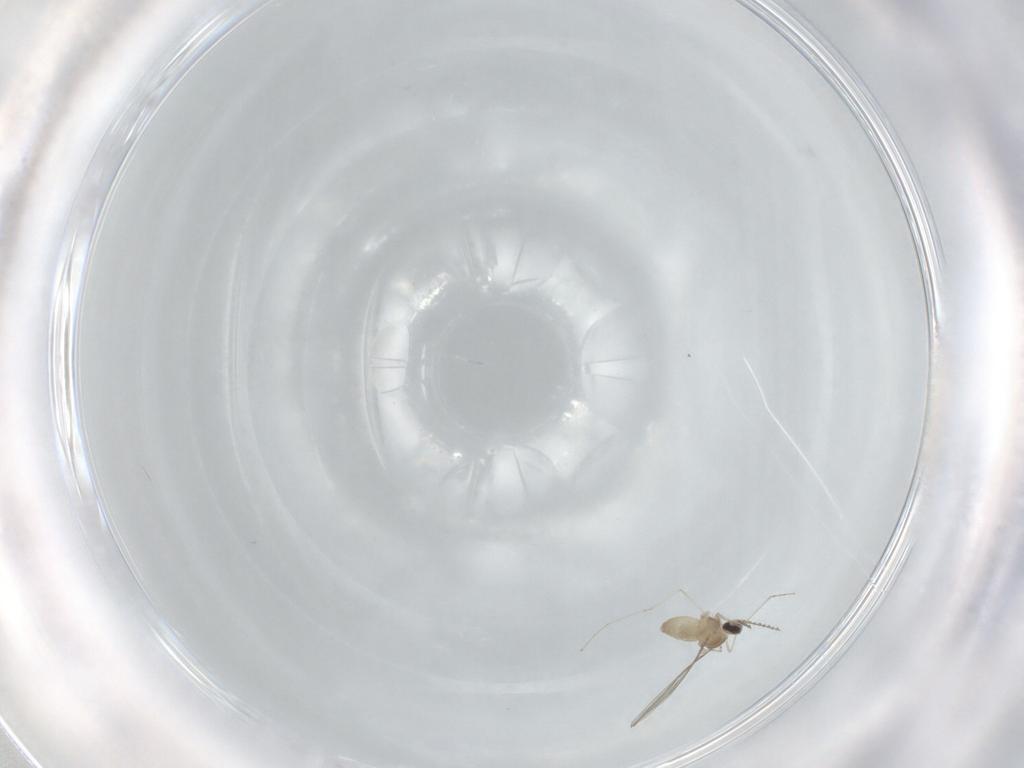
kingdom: Animalia
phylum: Arthropoda
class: Insecta
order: Diptera
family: Cecidomyiidae
